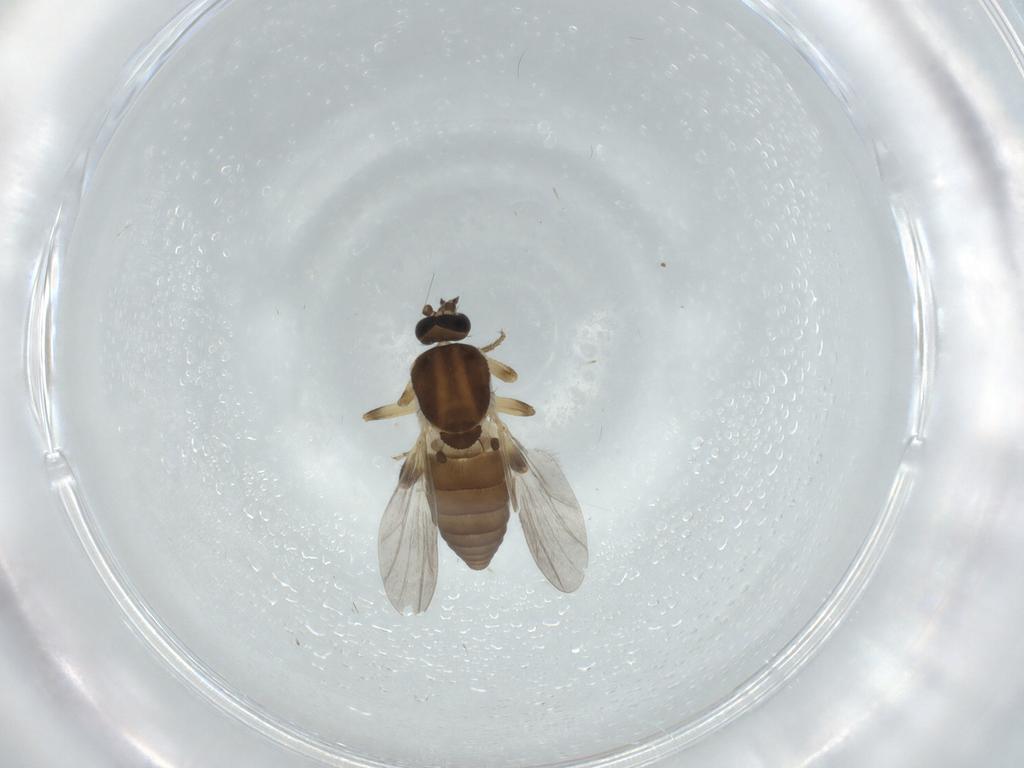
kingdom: Animalia
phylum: Arthropoda
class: Insecta
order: Diptera
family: Ceratopogonidae
